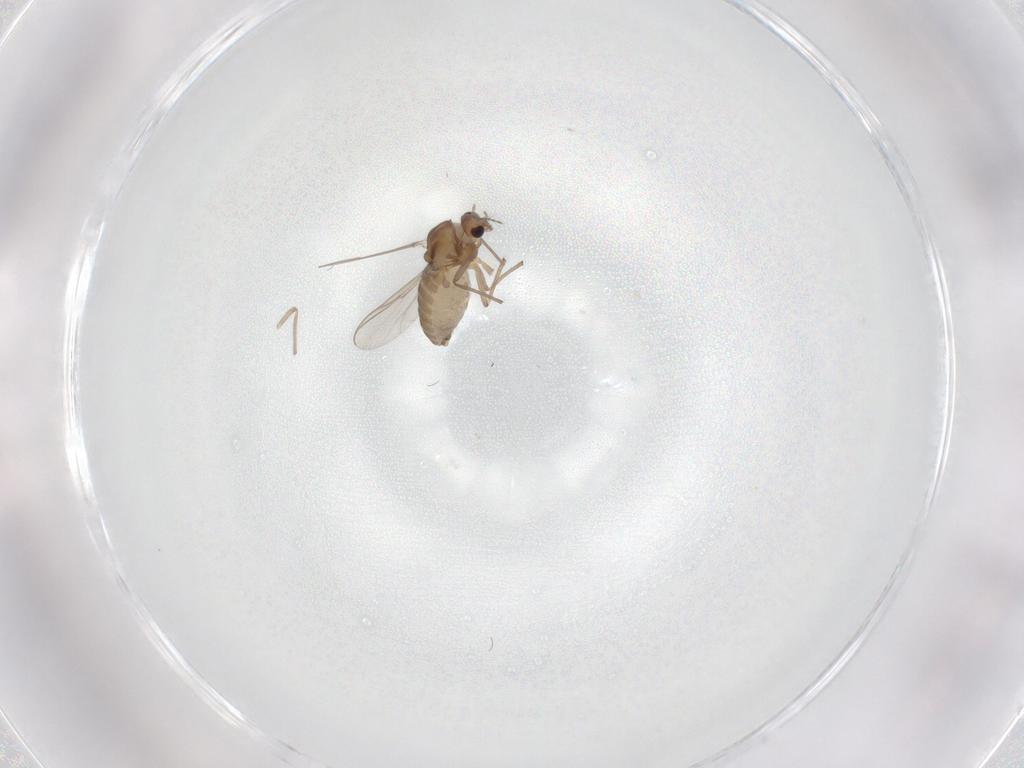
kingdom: Animalia
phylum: Arthropoda
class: Insecta
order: Diptera
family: Chironomidae
